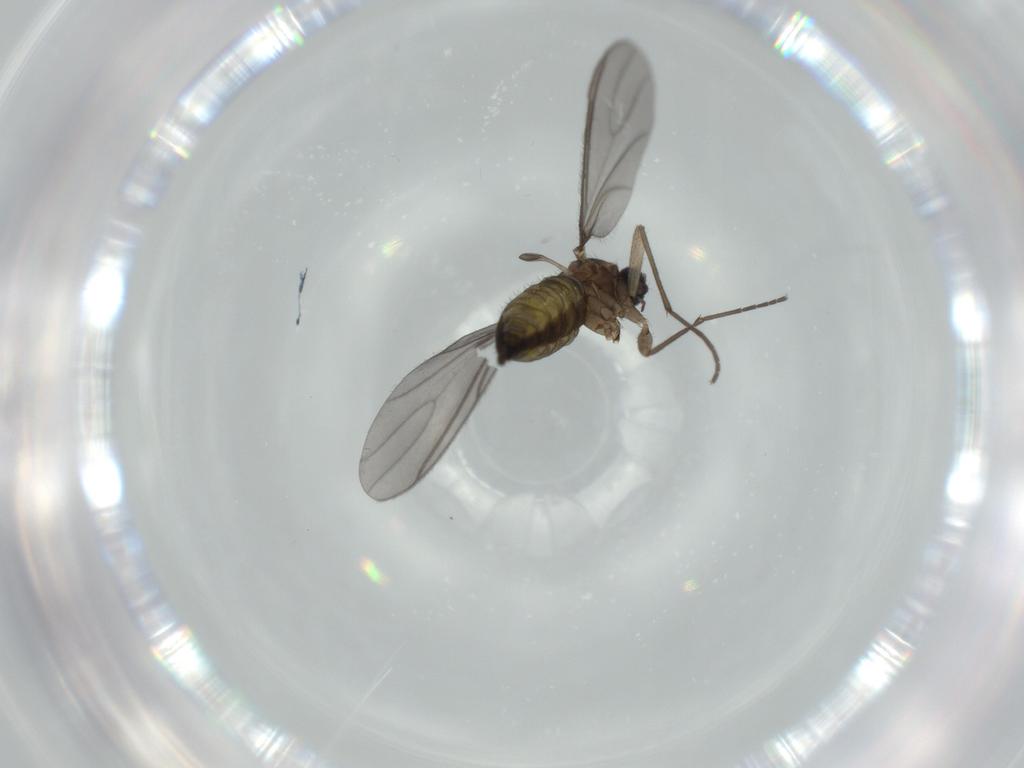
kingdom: Animalia
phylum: Arthropoda
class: Insecta
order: Diptera
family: Sciaridae
